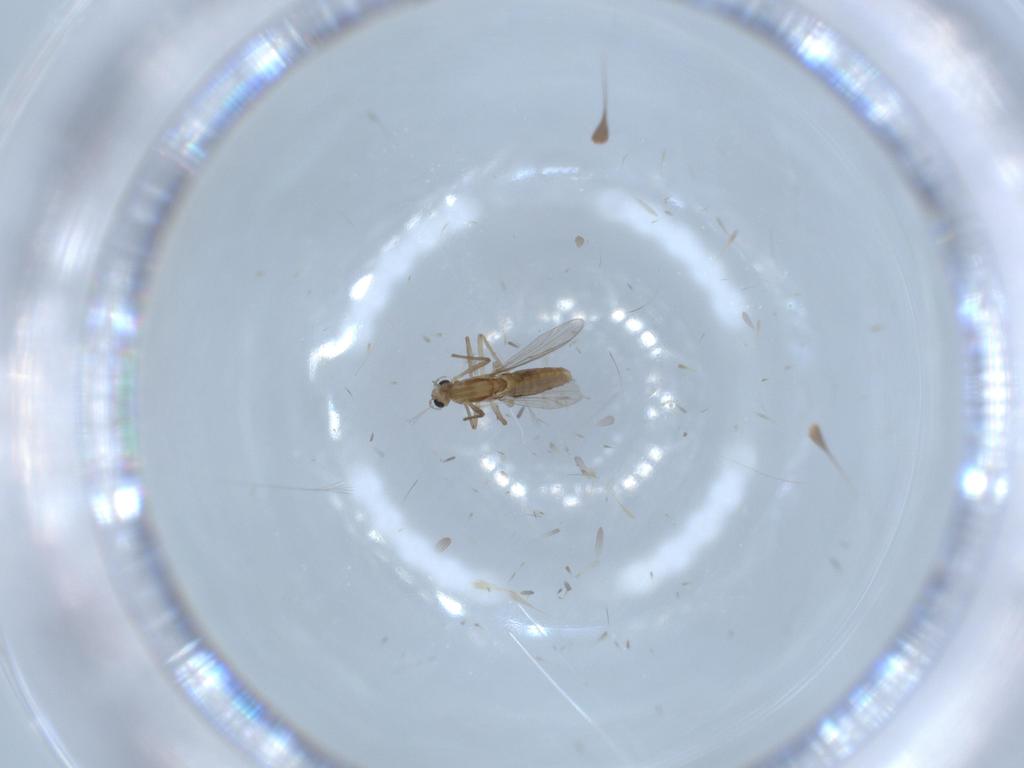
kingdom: Animalia
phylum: Arthropoda
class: Insecta
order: Diptera
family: Chironomidae
